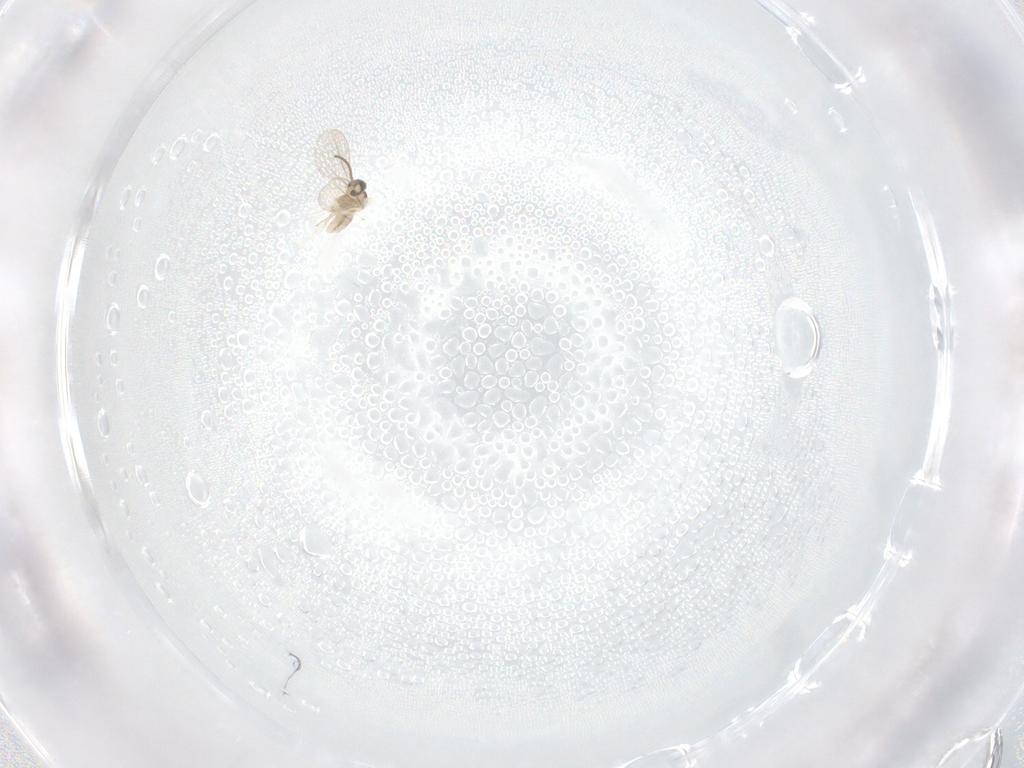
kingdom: Animalia
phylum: Arthropoda
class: Insecta
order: Diptera
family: Cecidomyiidae
